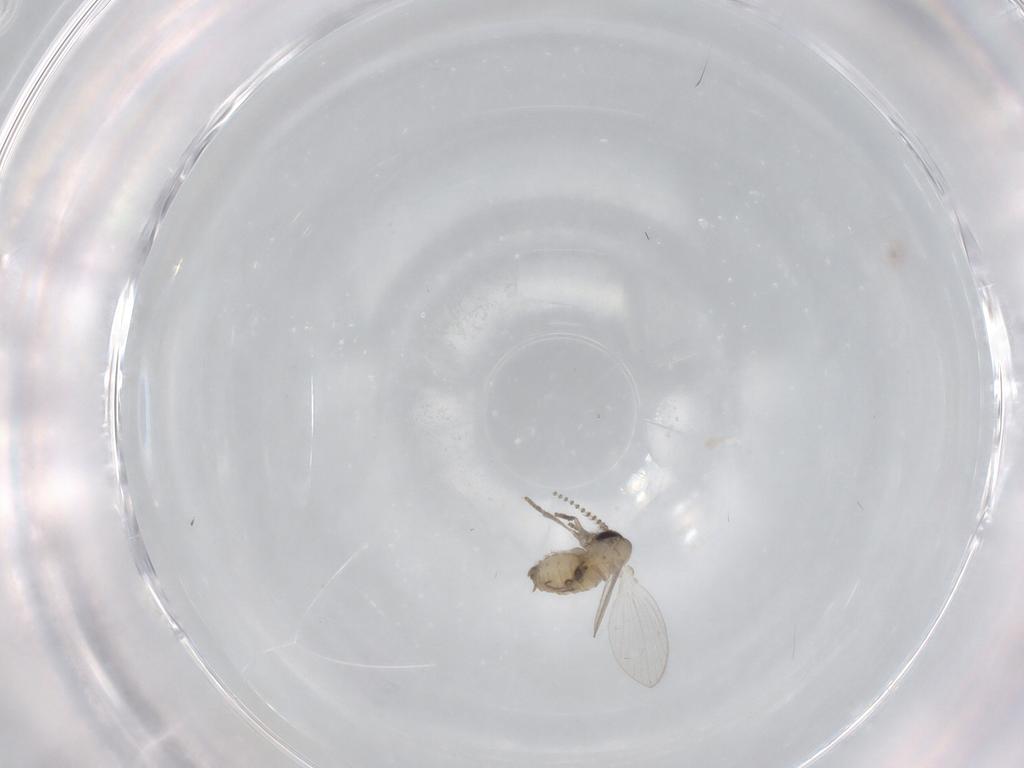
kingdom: Animalia
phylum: Arthropoda
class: Insecta
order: Diptera
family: Psychodidae
